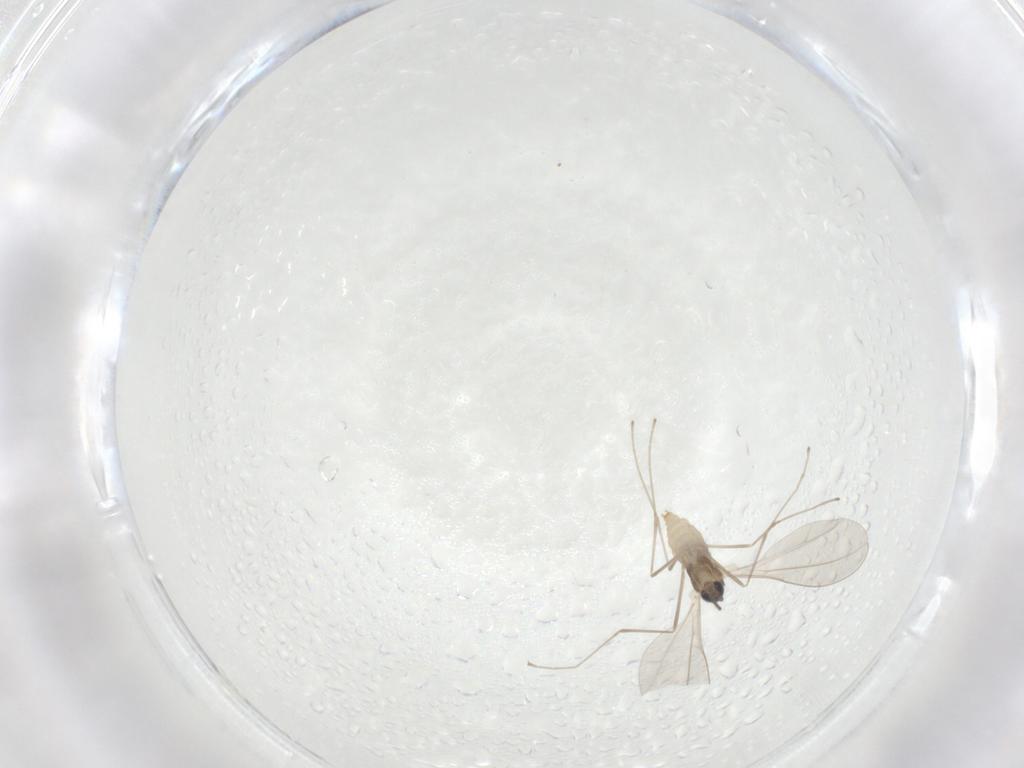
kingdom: Animalia
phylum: Arthropoda
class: Insecta
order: Diptera
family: Cecidomyiidae
